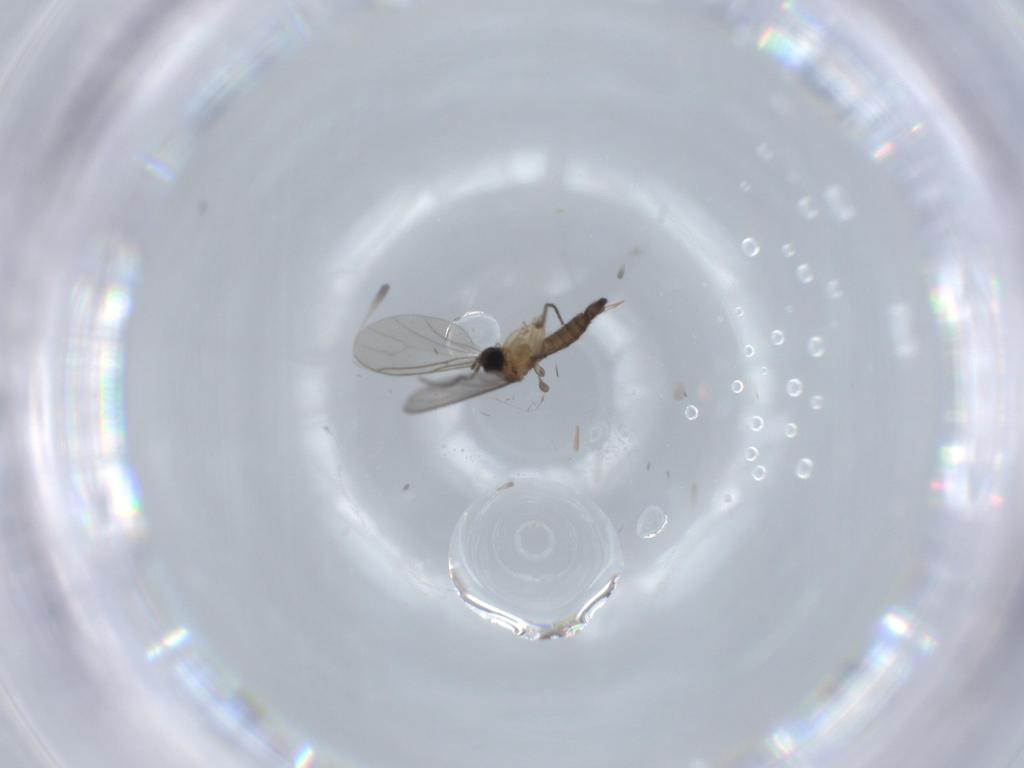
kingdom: Animalia
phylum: Arthropoda
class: Insecta
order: Diptera
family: Sciaridae
